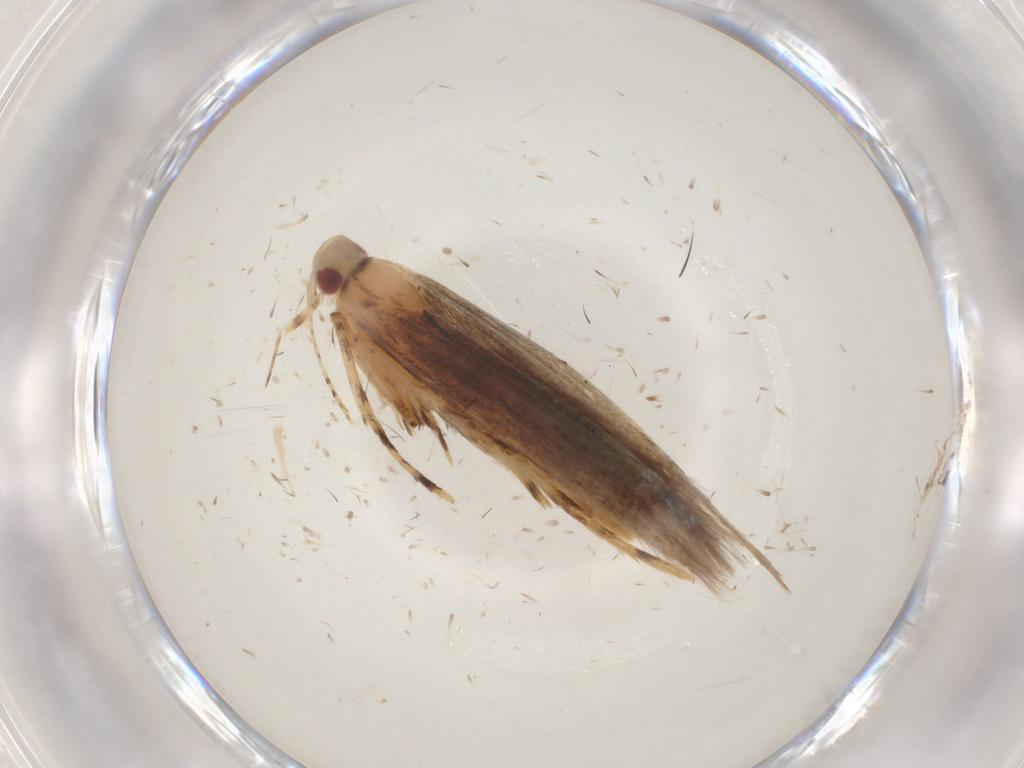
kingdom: Animalia
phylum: Arthropoda
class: Insecta
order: Lepidoptera
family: Cosmopterigidae
